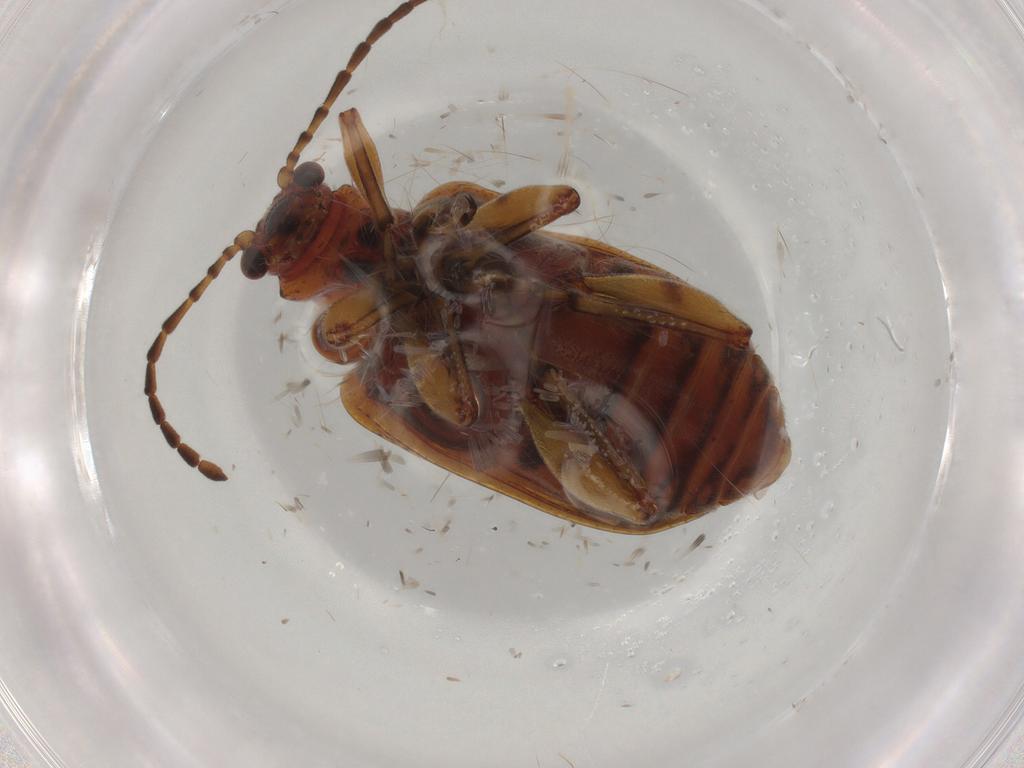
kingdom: Animalia
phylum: Arthropoda
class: Insecta
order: Coleoptera
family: Chrysomelidae
